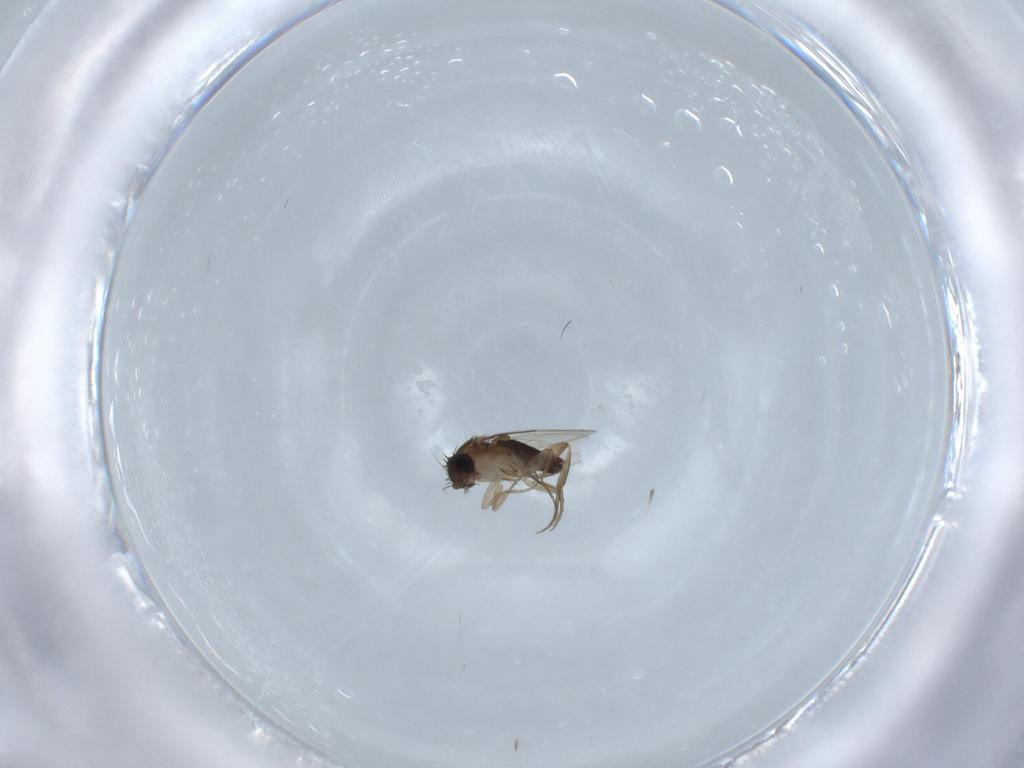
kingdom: Animalia
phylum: Arthropoda
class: Insecta
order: Diptera
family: Phoridae
